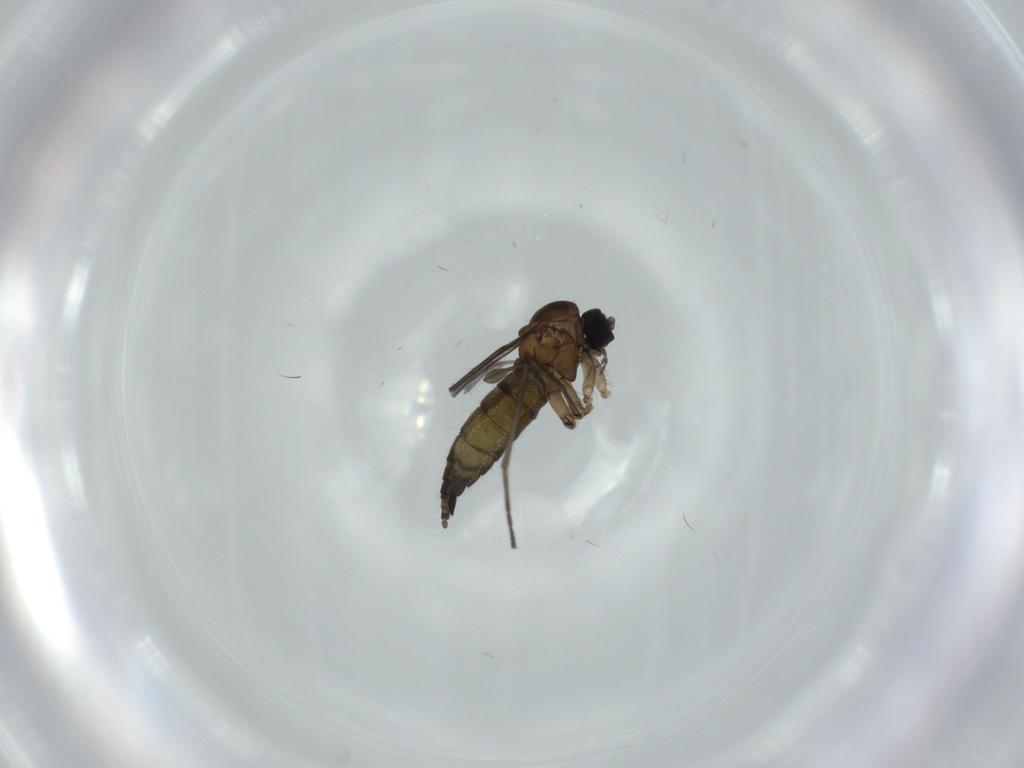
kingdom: Animalia
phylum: Arthropoda
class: Insecta
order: Diptera
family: Sciaridae
